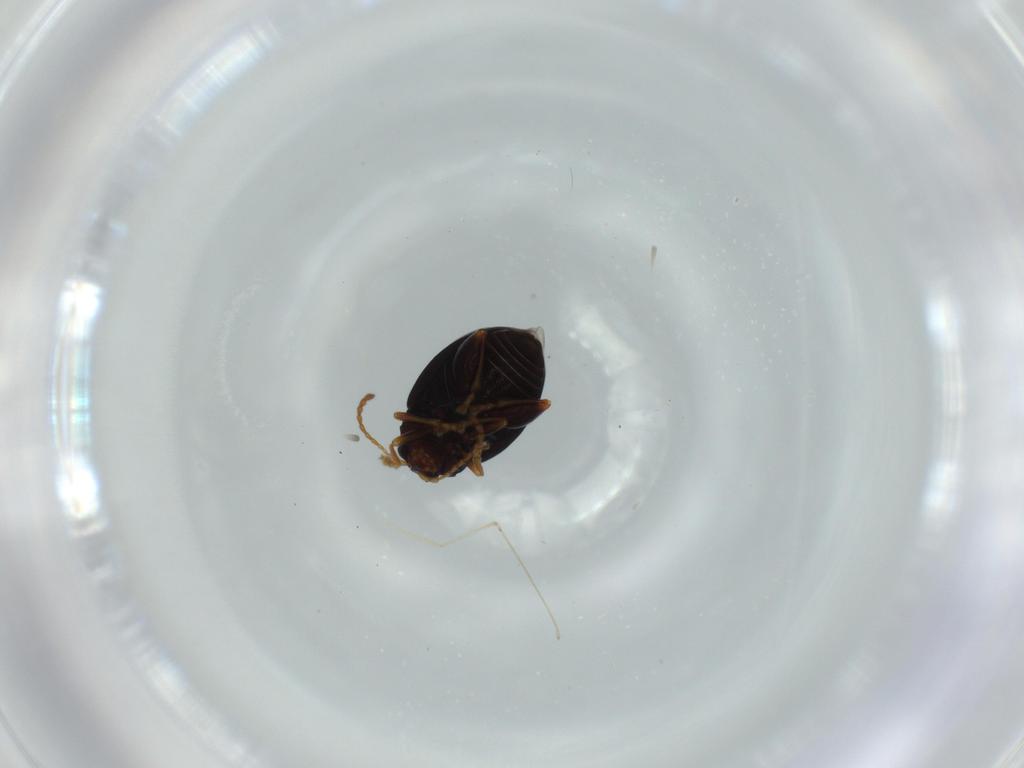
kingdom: Animalia
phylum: Arthropoda
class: Insecta
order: Coleoptera
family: Chrysomelidae
